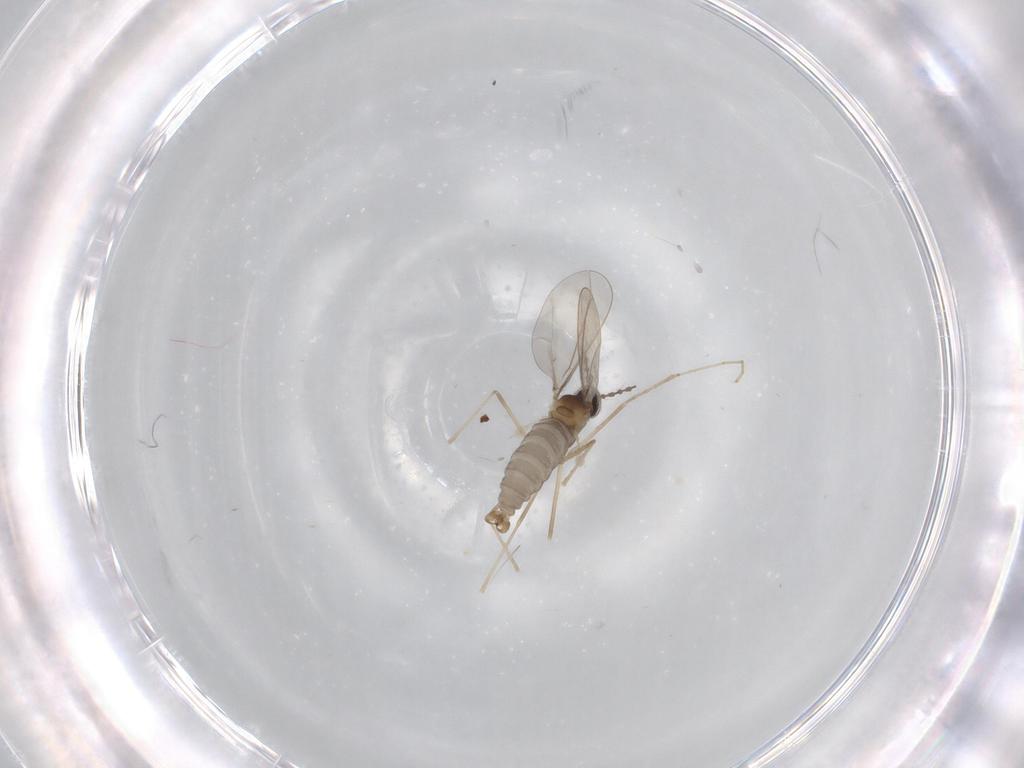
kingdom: Animalia
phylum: Arthropoda
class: Insecta
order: Diptera
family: Cecidomyiidae
